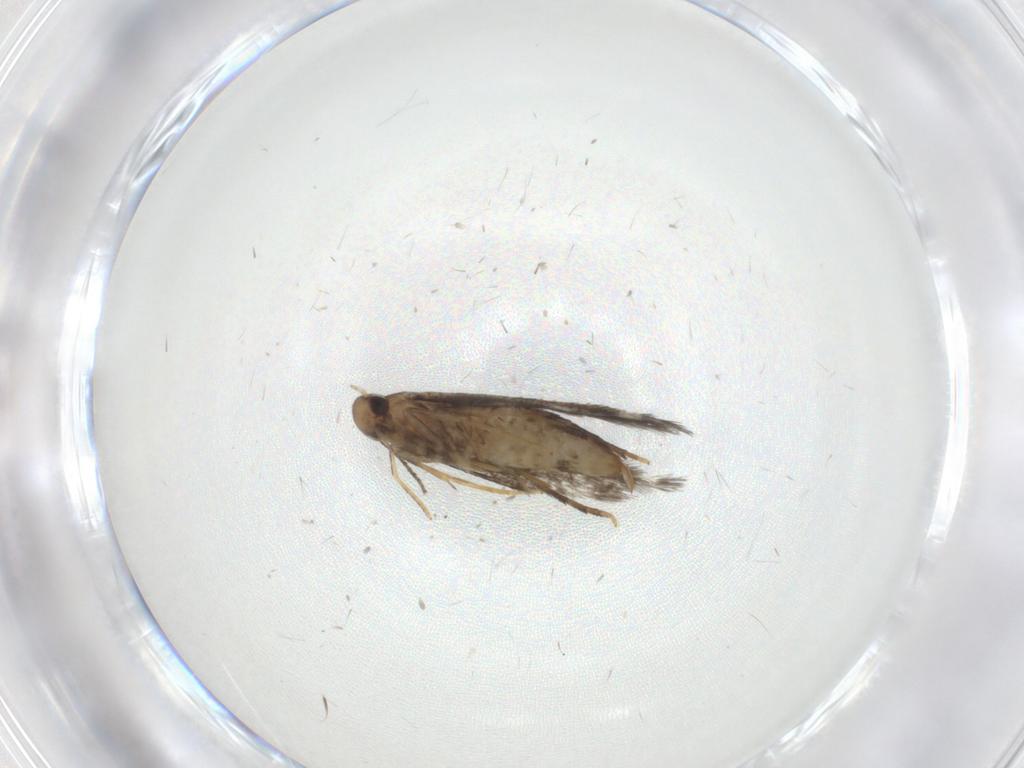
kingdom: Animalia
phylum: Arthropoda
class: Insecta
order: Lepidoptera
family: Heliozelidae
